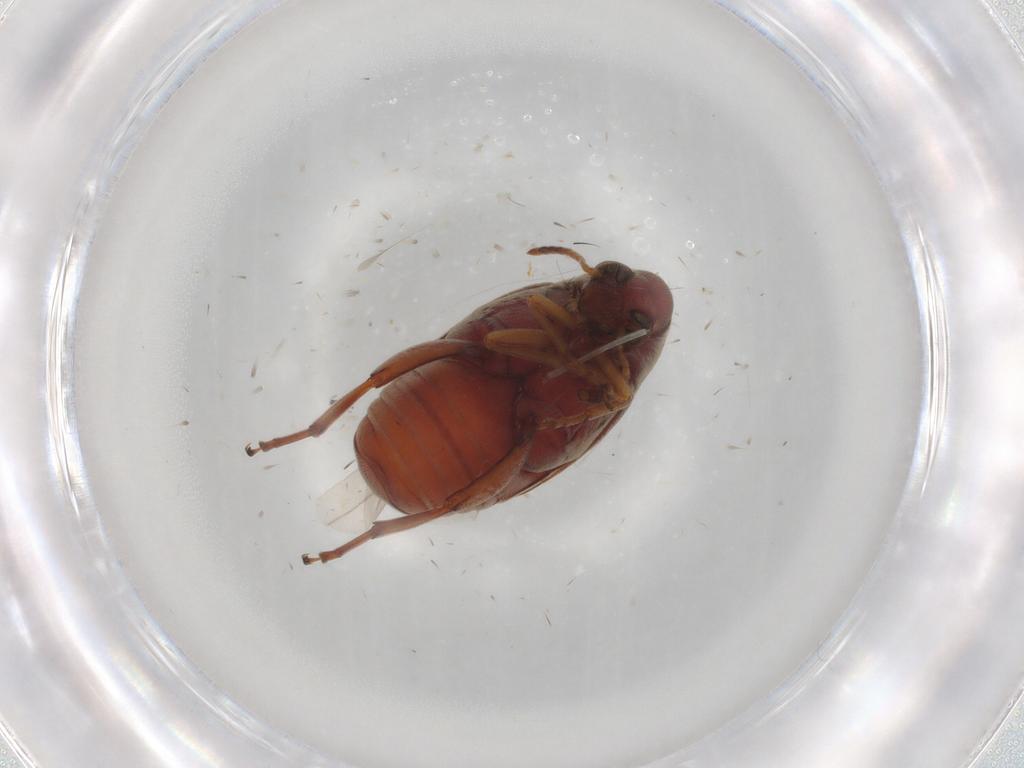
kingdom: Animalia
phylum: Arthropoda
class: Insecta
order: Coleoptera
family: Chrysomelidae
